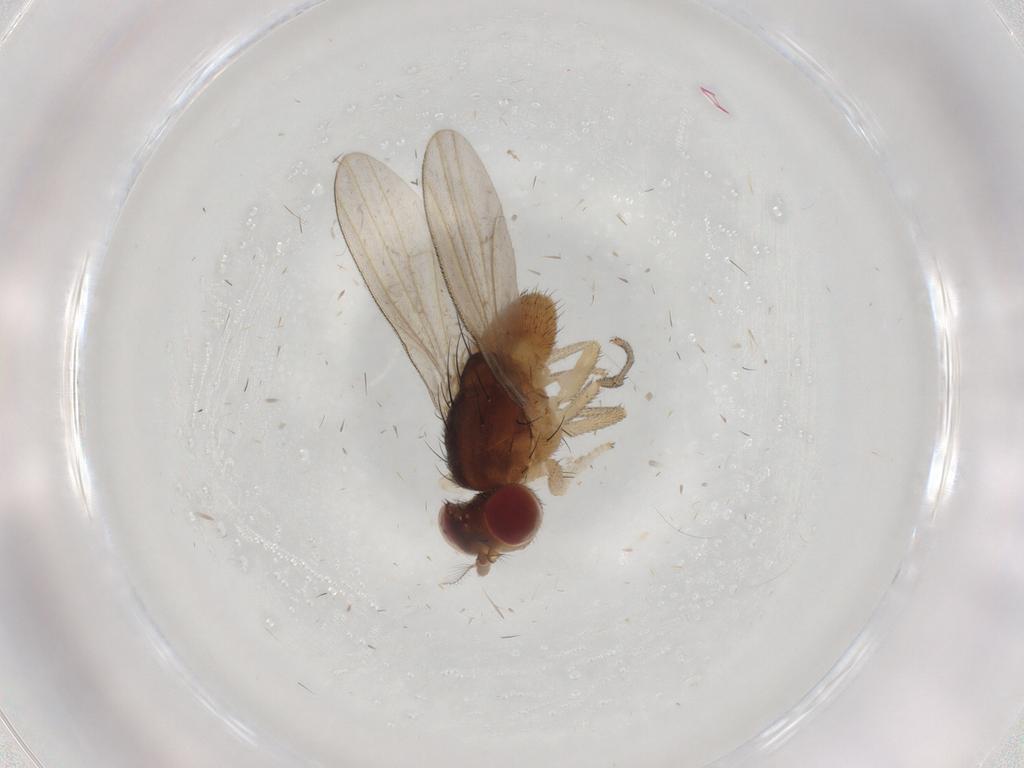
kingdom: Animalia
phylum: Arthropoda
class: Insecta
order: Diptera
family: Lauxaniidae
